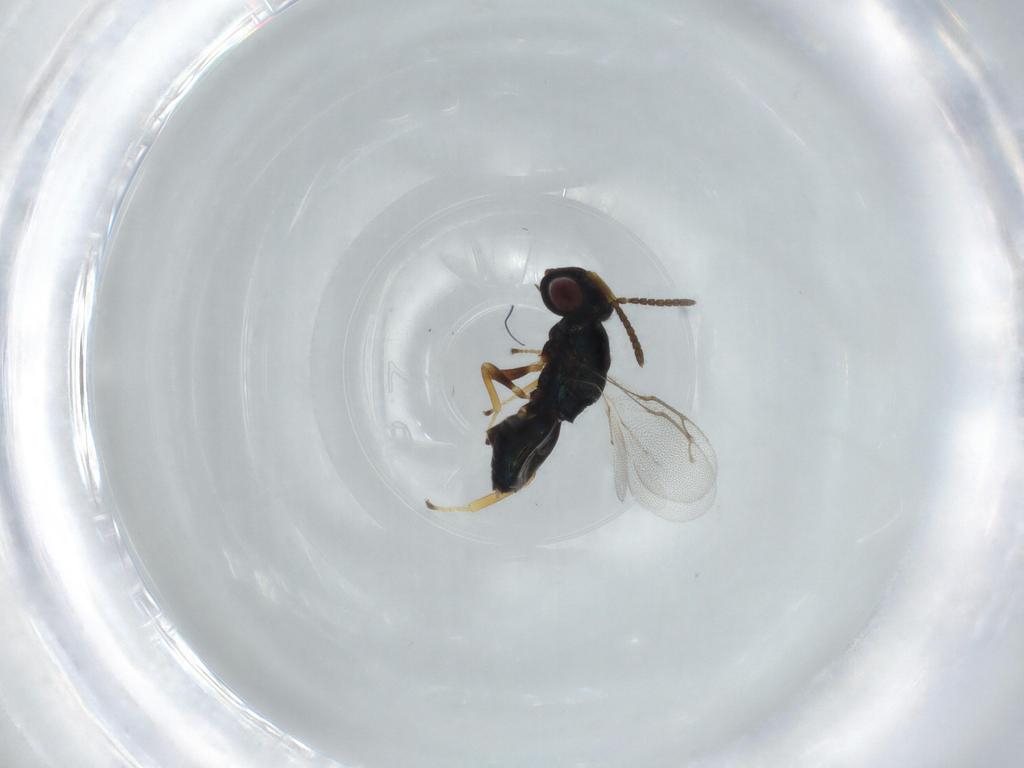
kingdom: Animalia
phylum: Arthropoda
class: Insecta
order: Hymenoptera
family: Pteromalidae
